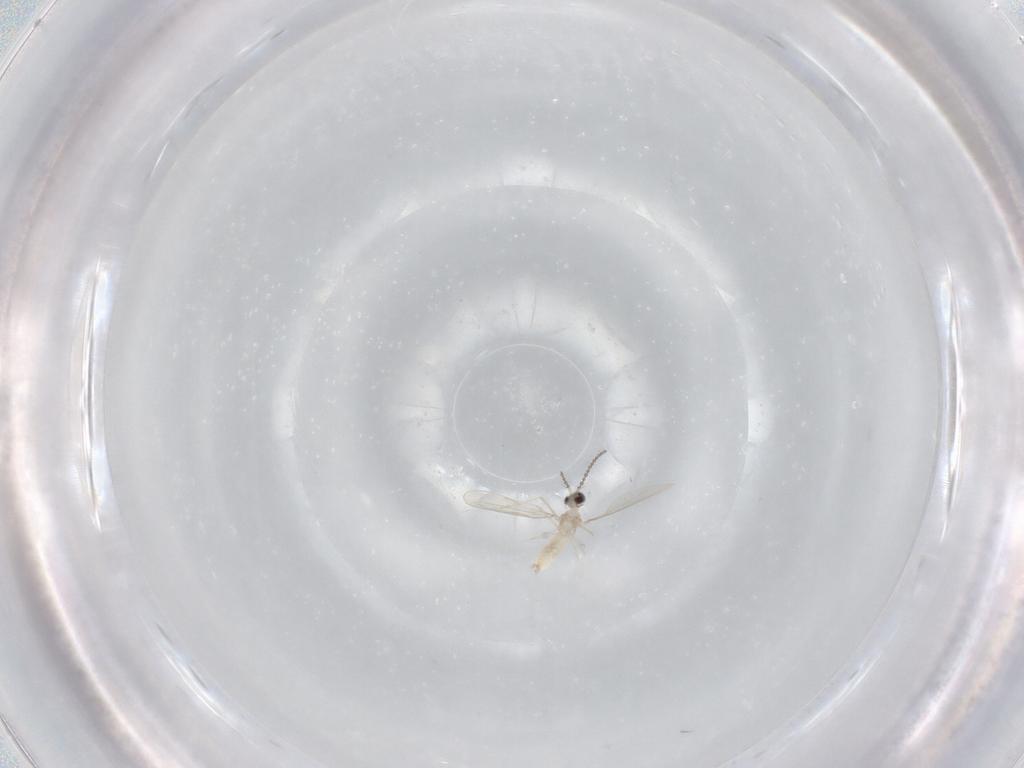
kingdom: Animalia
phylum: Arthropoda
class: Insecta
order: Diptera
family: Cecidomyiidae
